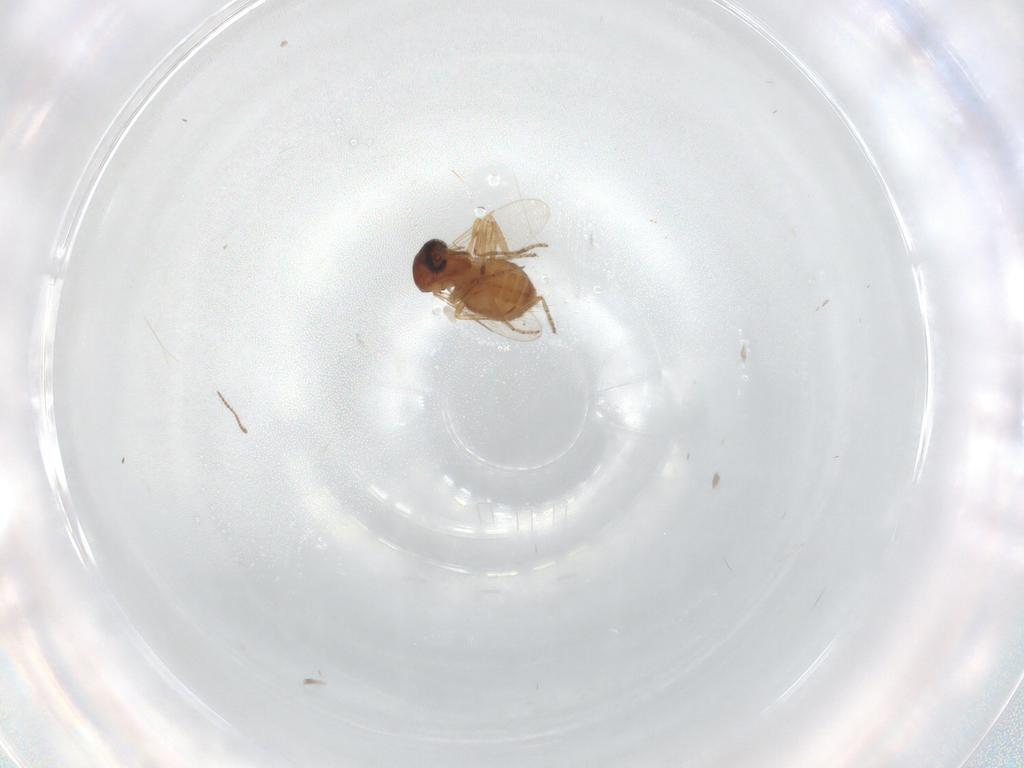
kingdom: Animalia
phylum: Arthropoda
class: Insecta
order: Diptera
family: Ceratopogonidae
